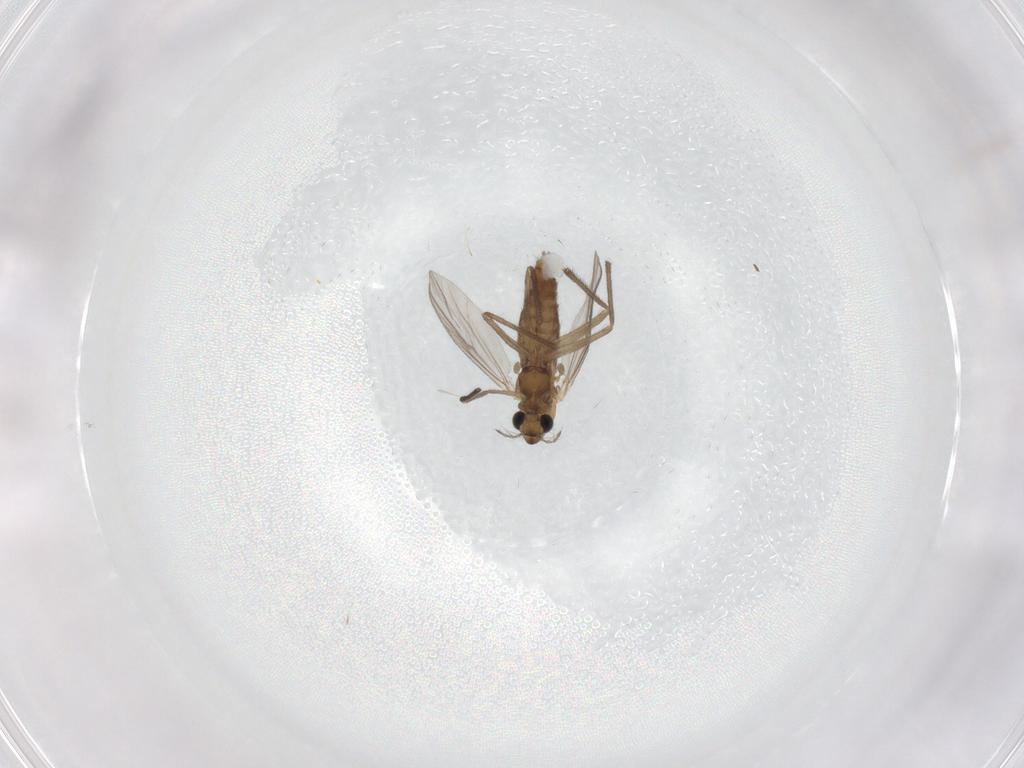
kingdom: Animalia
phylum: Arthropoda
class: Insecta
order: Diptera
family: Chironomidae
